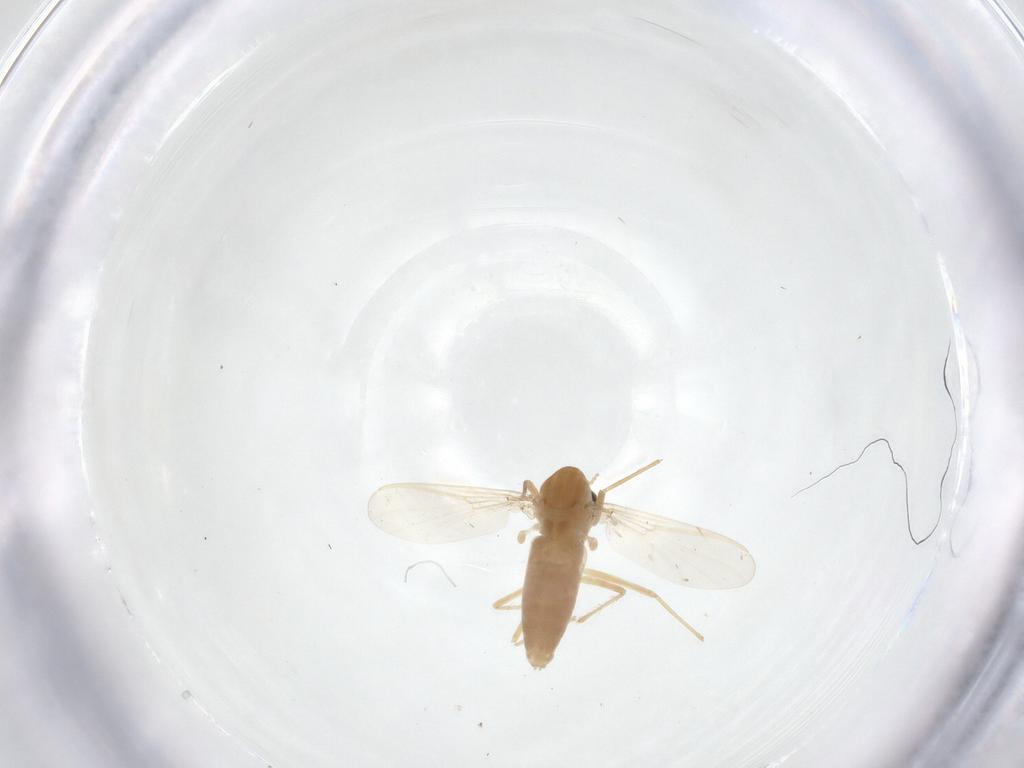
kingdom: Animalia
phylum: Arthropoda
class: Insecta
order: Diptera
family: Chironomidae
